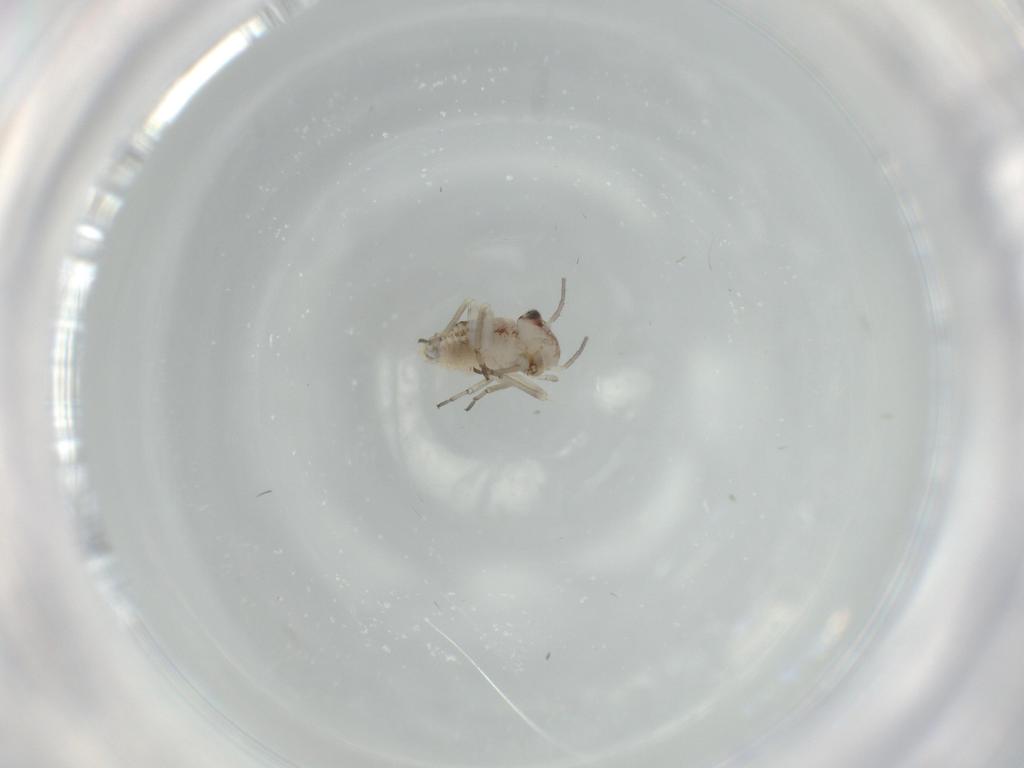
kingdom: Animalia
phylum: Arthropoda
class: Insecta
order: Psocodea
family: Psocidae
